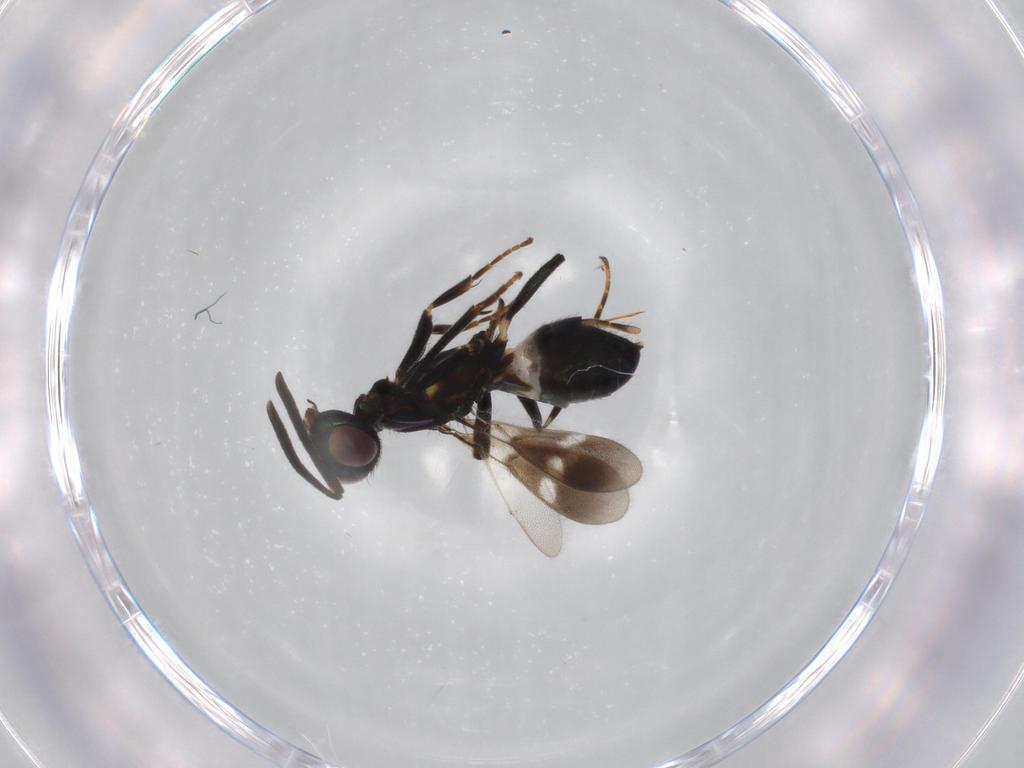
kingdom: Animalia
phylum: Arthropoda
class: Insecta
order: Hymenoptera
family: Eupelmidae
